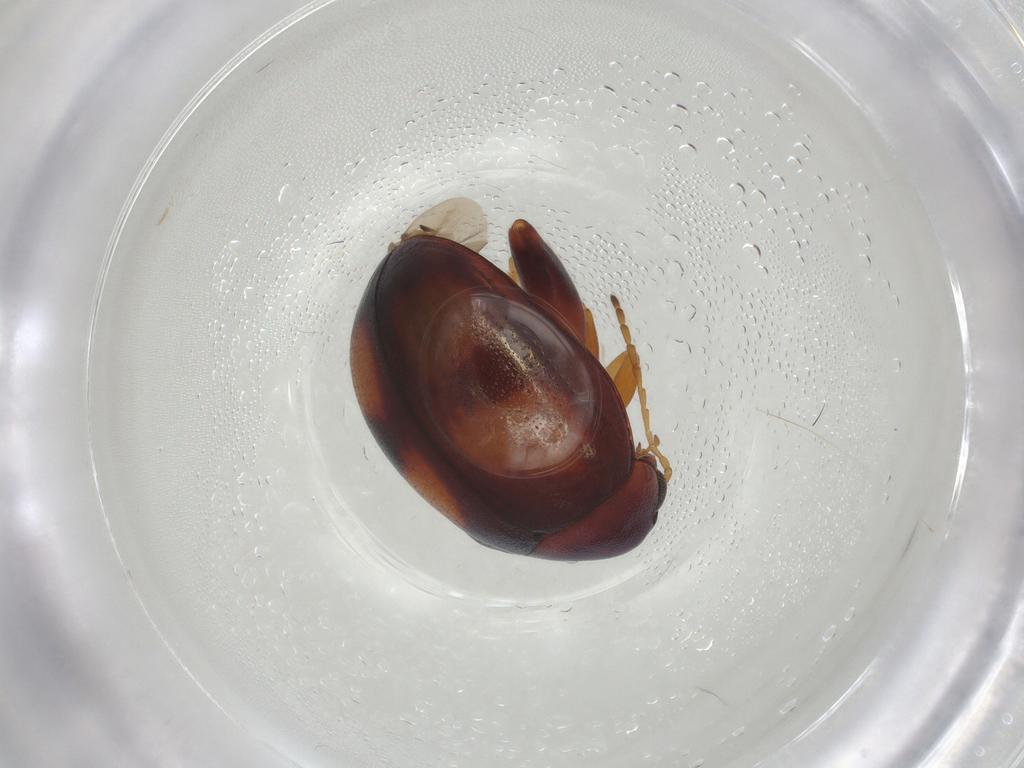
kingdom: Animalia
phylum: Arthropoda
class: Insecta
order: Coleoptera
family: Chrysomelidae
